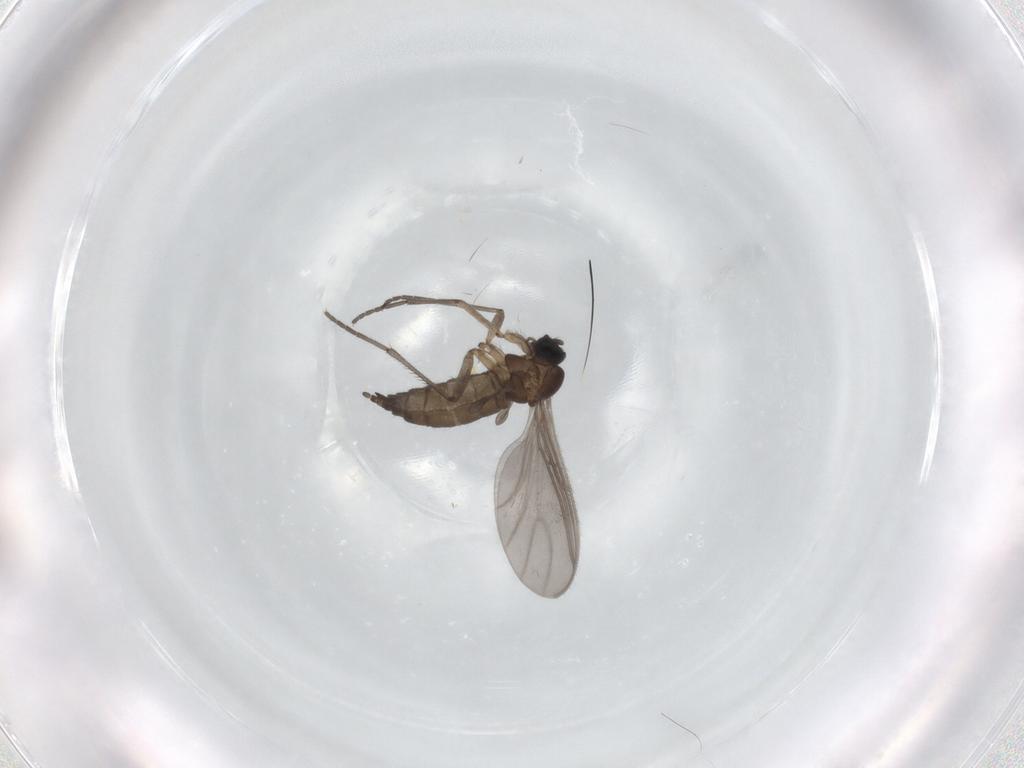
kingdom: Animalia
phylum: Arthropoda
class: Insecta
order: Diptera
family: Sciaridae
